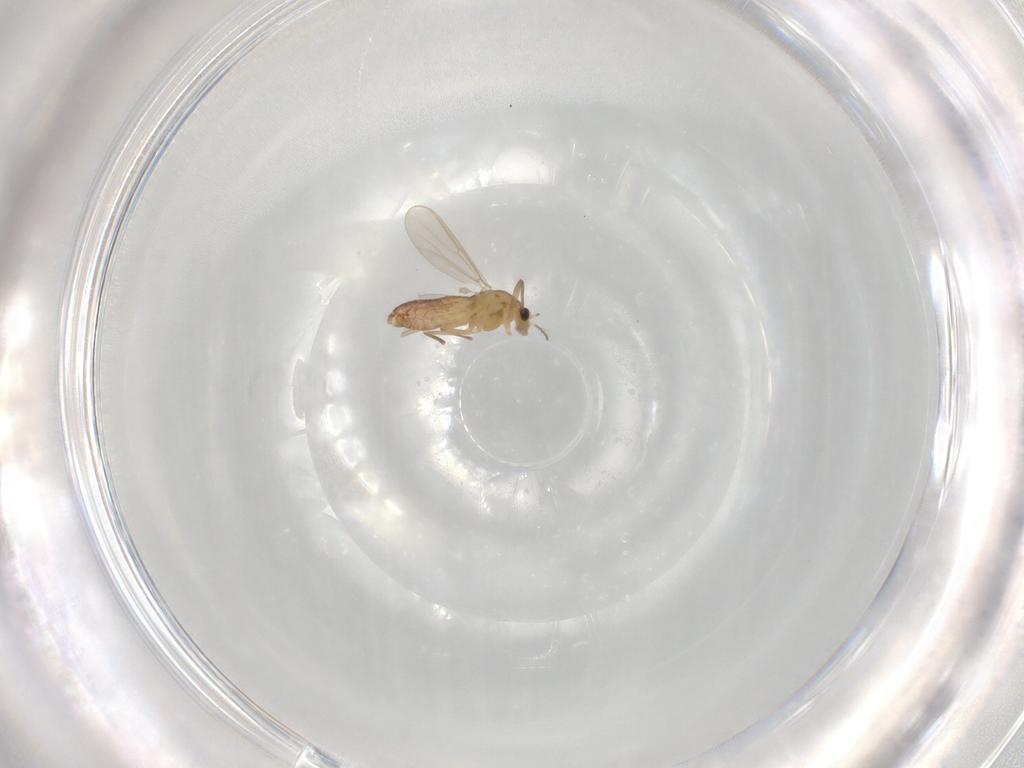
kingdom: Animalia
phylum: Arthropoda
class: Insecta
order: Diptera
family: Chironomidae
